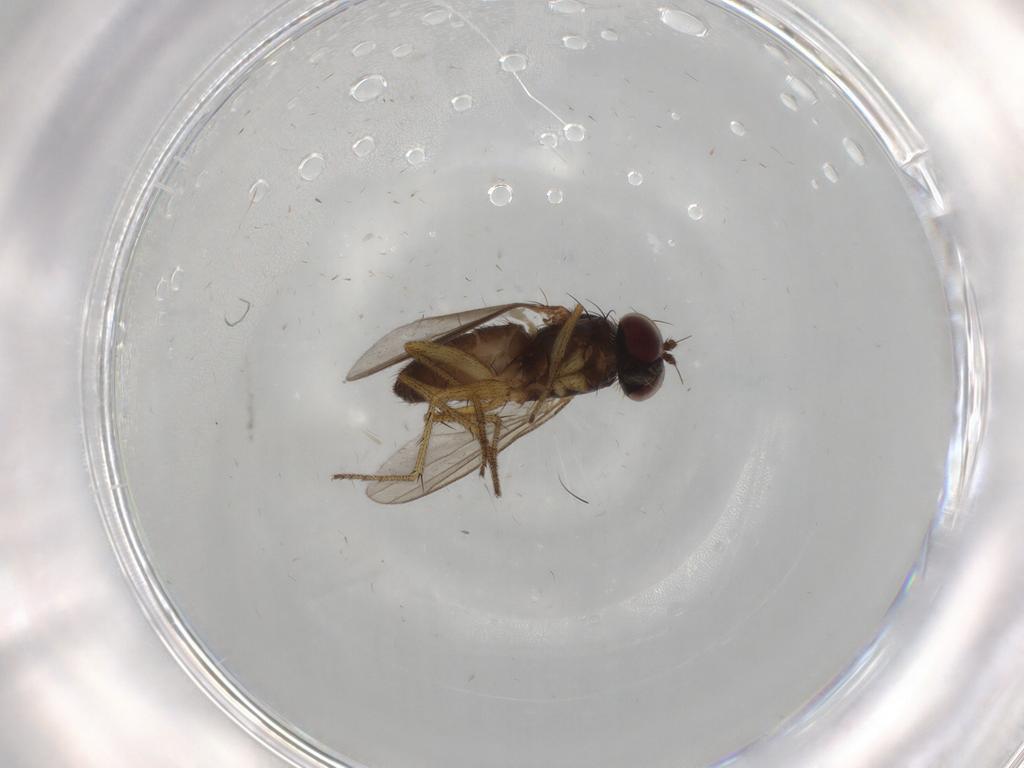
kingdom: Animalia
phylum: Arthropoda
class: Insecta
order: Diptera
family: Dolichopodidae
